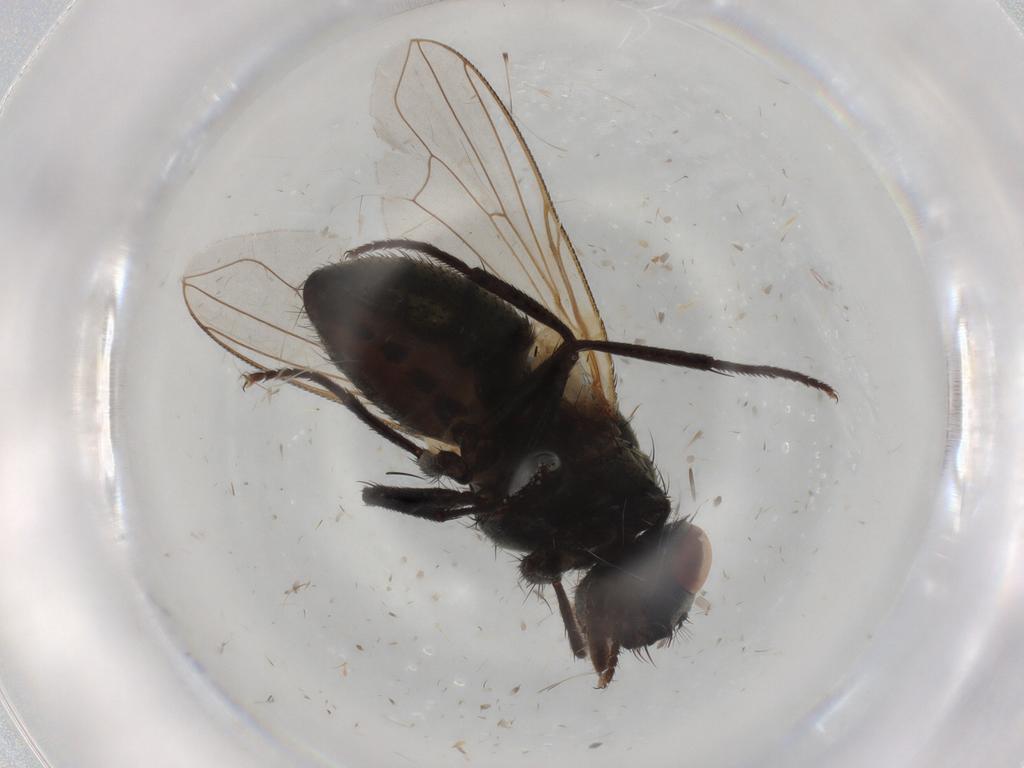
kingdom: Animalia
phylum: Arthropoda
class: Insecta
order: Diptera
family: Muscidae
